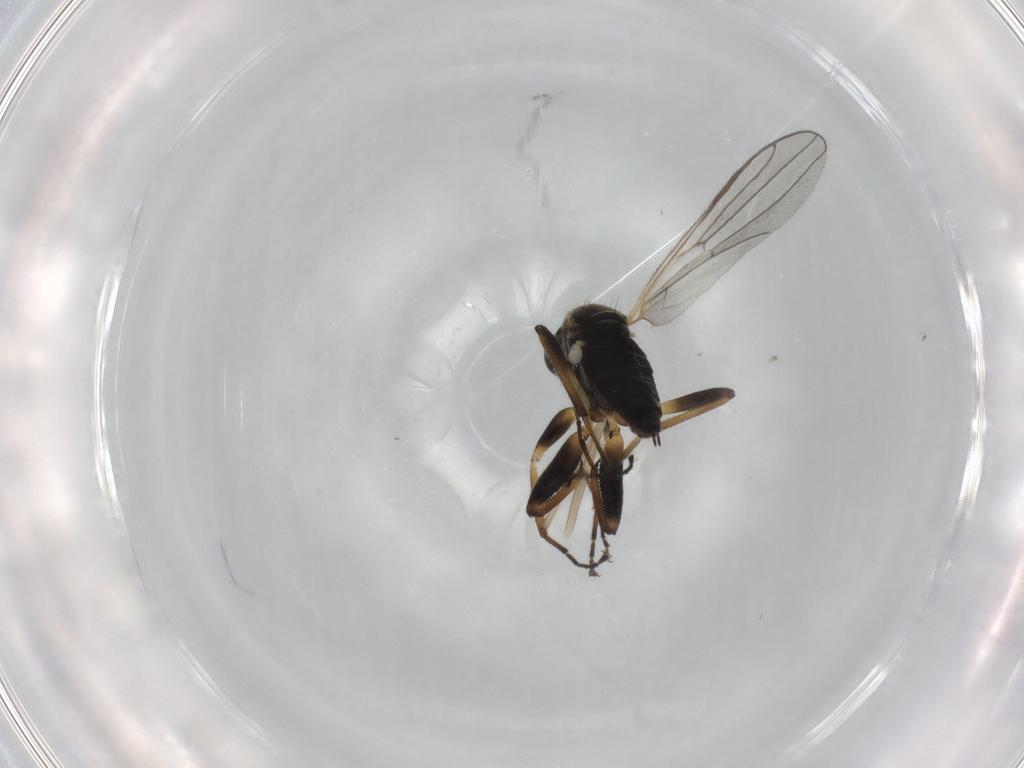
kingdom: Animalia
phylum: Arthropoda
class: Insecta
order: Diptera
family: Hybotidae
